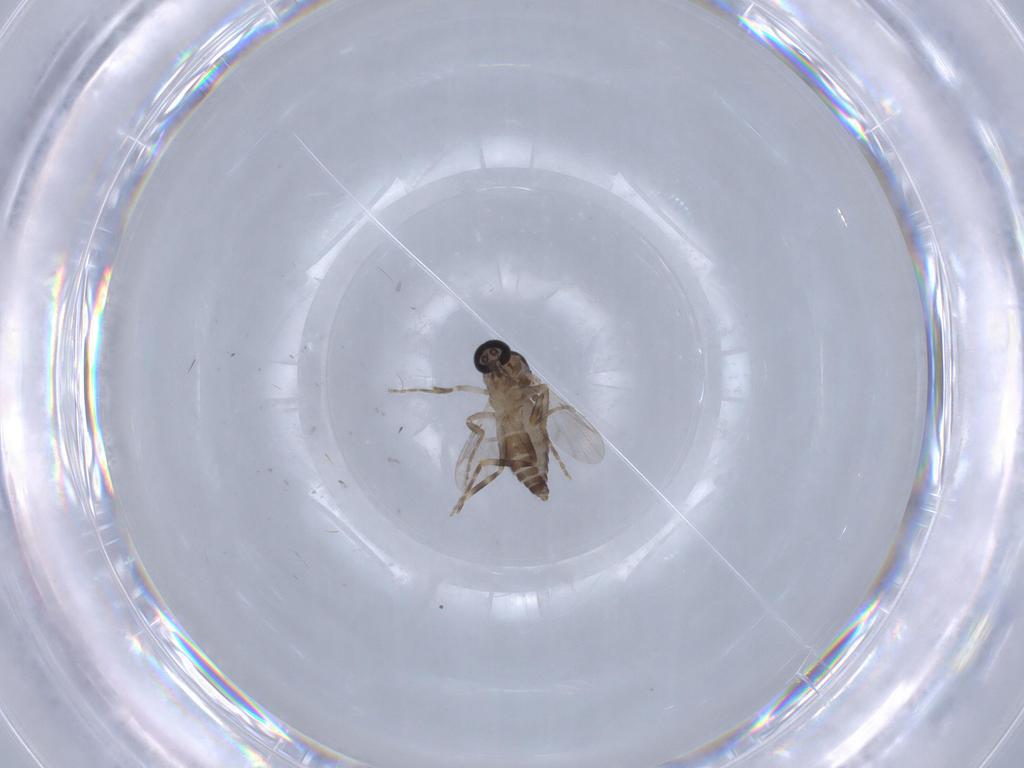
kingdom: Animalia
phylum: Arthropoda
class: Insecta
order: Diptera
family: Ceratopogonidae
